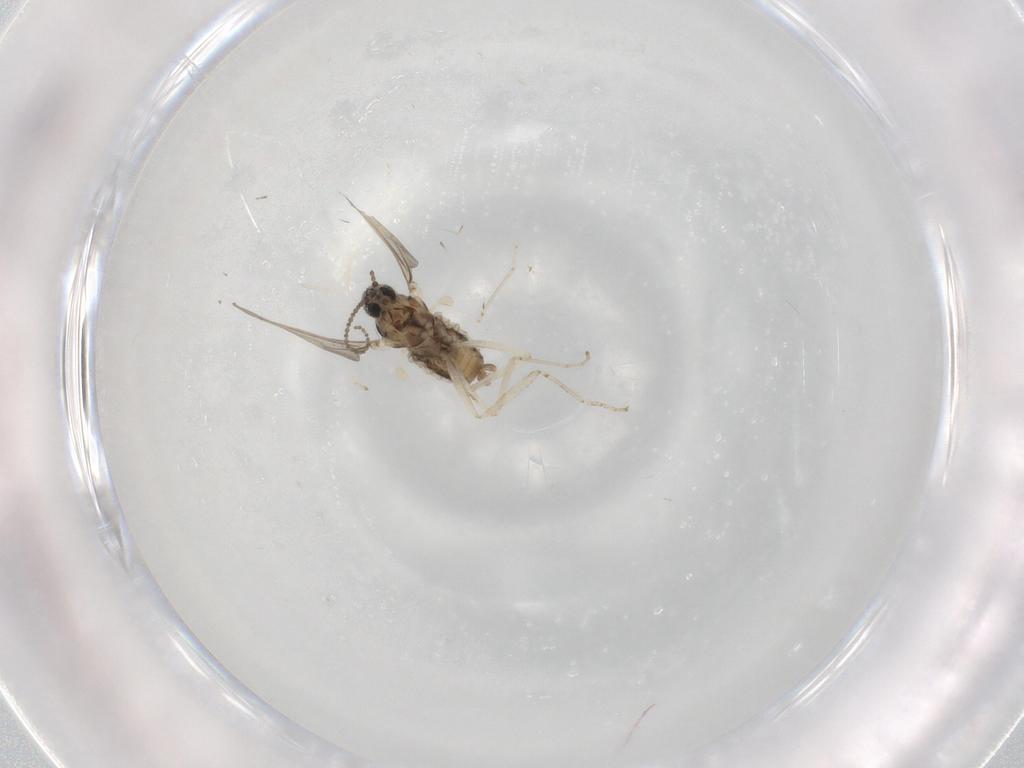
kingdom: Animalia
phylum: Arthropoda
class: Insecta
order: Diptera
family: Cecidomyiidae
